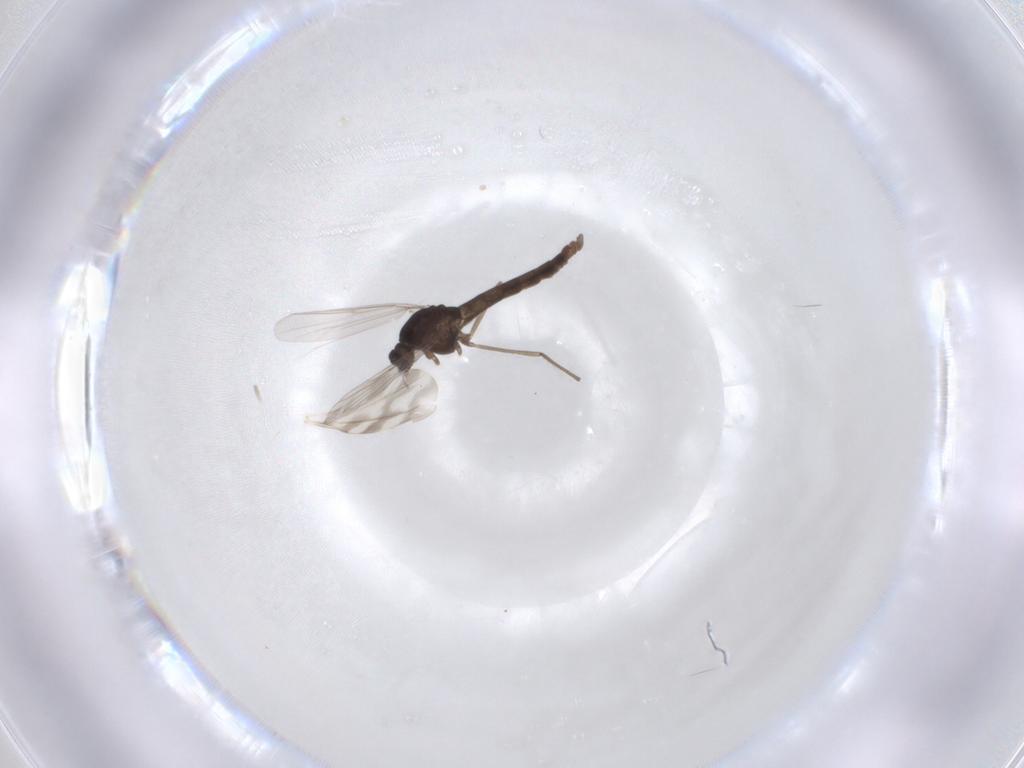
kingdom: Animalia
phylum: Arthropoda
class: Insecta
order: Diptera
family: Chironomidae
